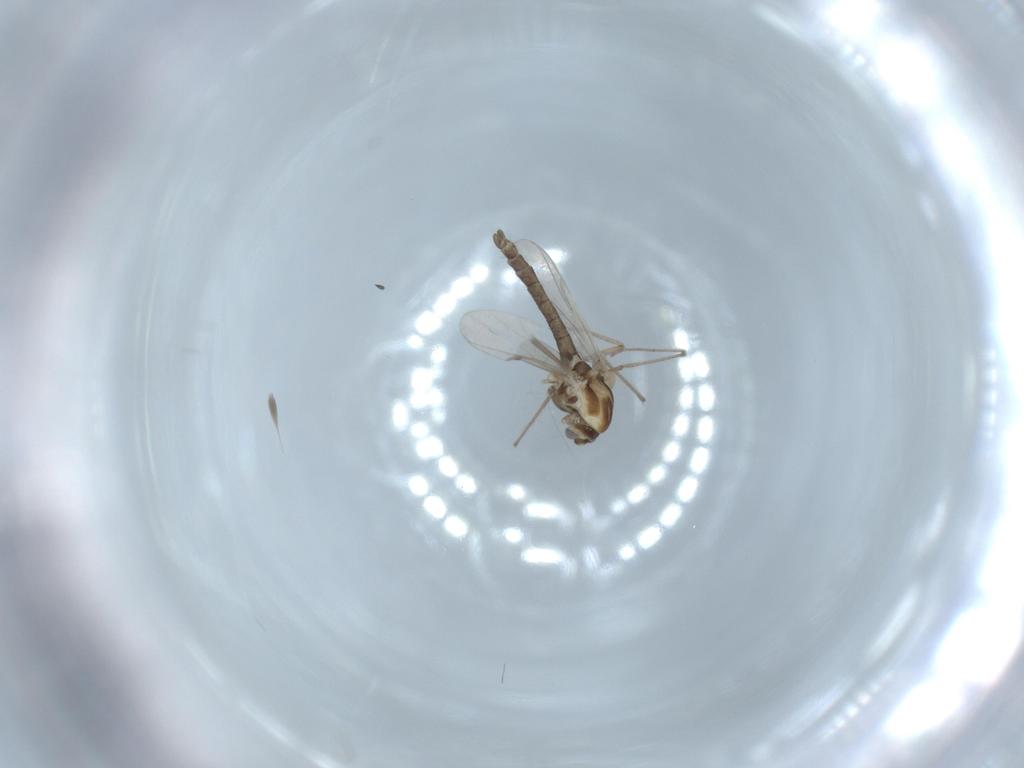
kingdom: Animalia
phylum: Arthropoda
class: Insecta
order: Diptera
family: Chironomidae
